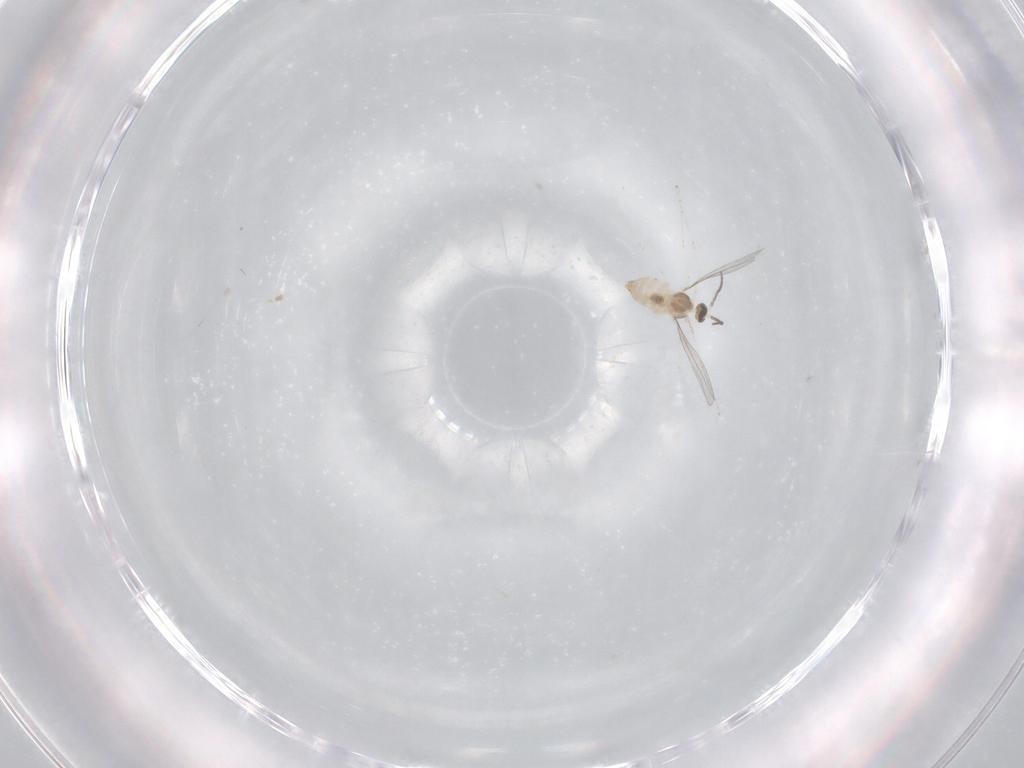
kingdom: Animalia
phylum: Arthropoda
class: Insecta
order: Diptera
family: Cecidomyiidae
